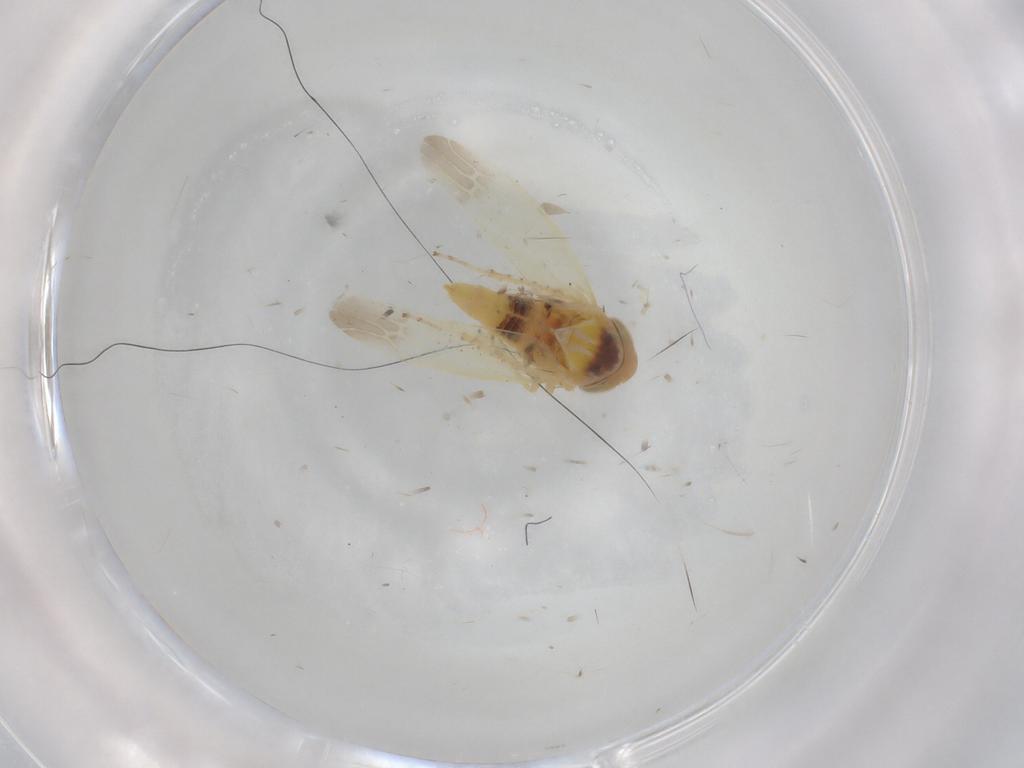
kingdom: Animalia
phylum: Arthropoda
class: Insecta
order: Hemiptera
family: Cicadellidae
